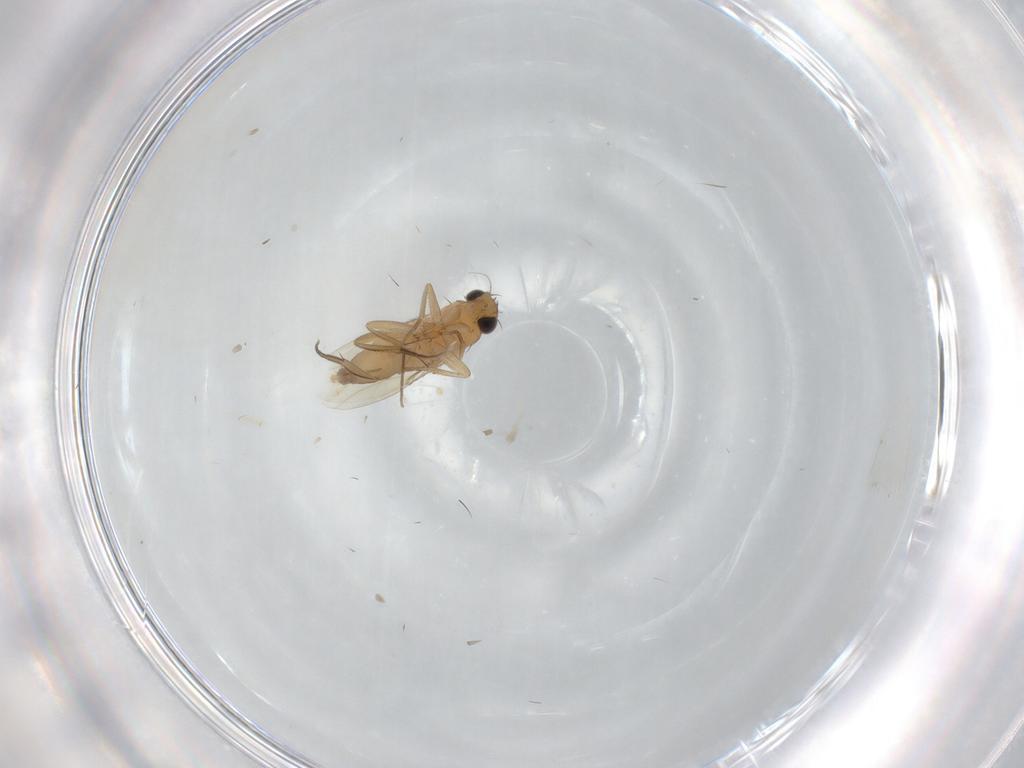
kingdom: Animalia
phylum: Arthropoda
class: Insecta
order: Diptera
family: Phoridae
